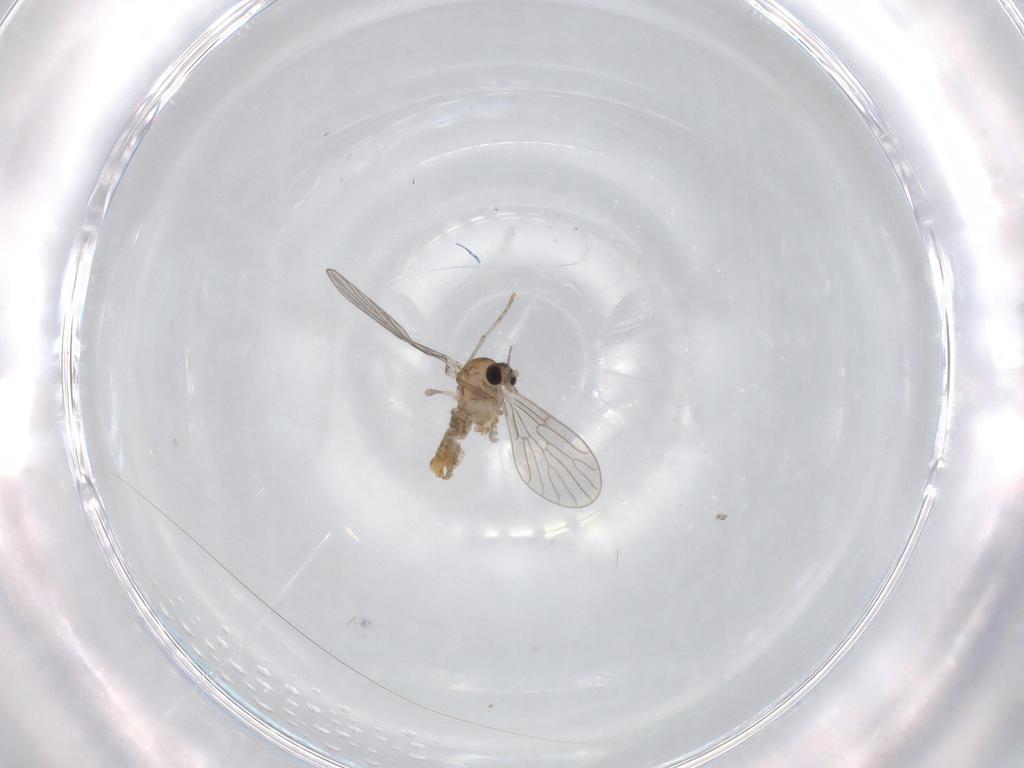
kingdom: Animalia
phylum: Arthropoda
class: Insecta
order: Diptera
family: Psychodidae
